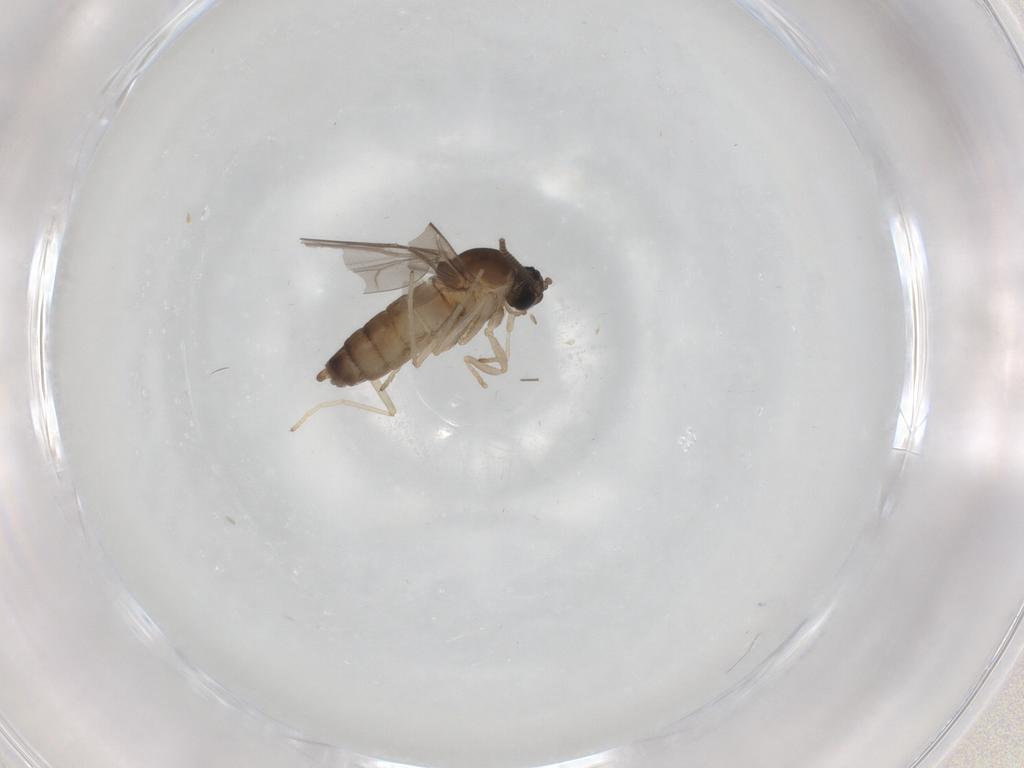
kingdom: Animalia
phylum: Arthropoda
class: Insecta
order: Diptera
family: Cecidomyiidae
